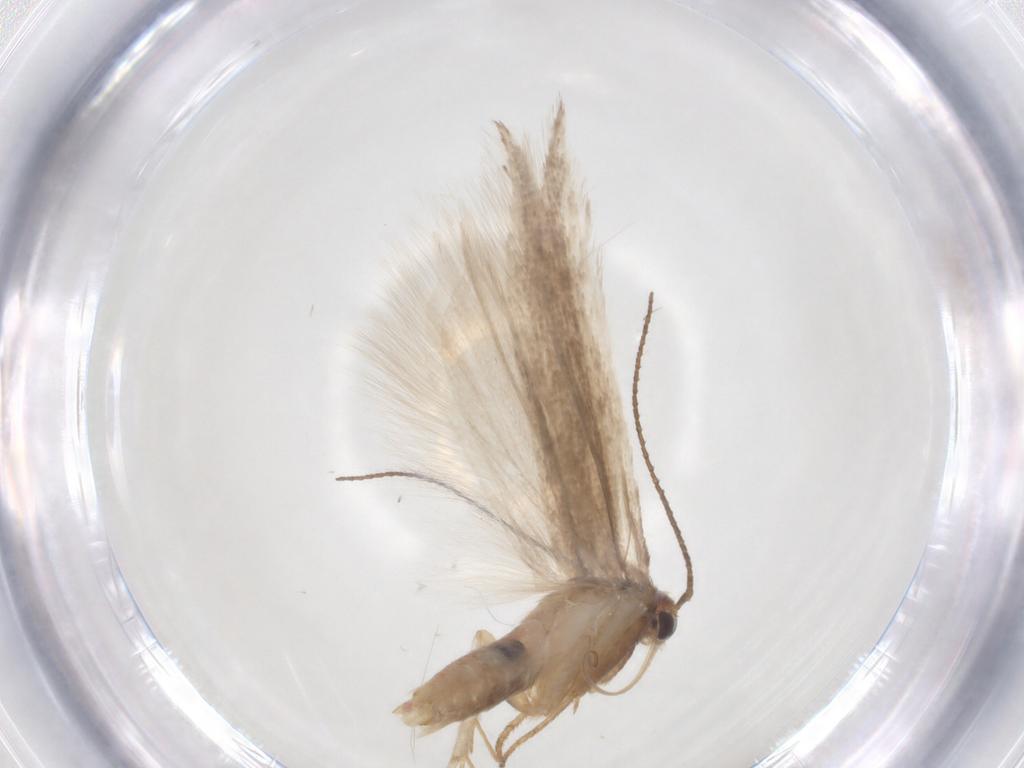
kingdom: Animalia
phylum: Arthropoda
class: Insecta
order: Lepidoptera
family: Gelechiidae
